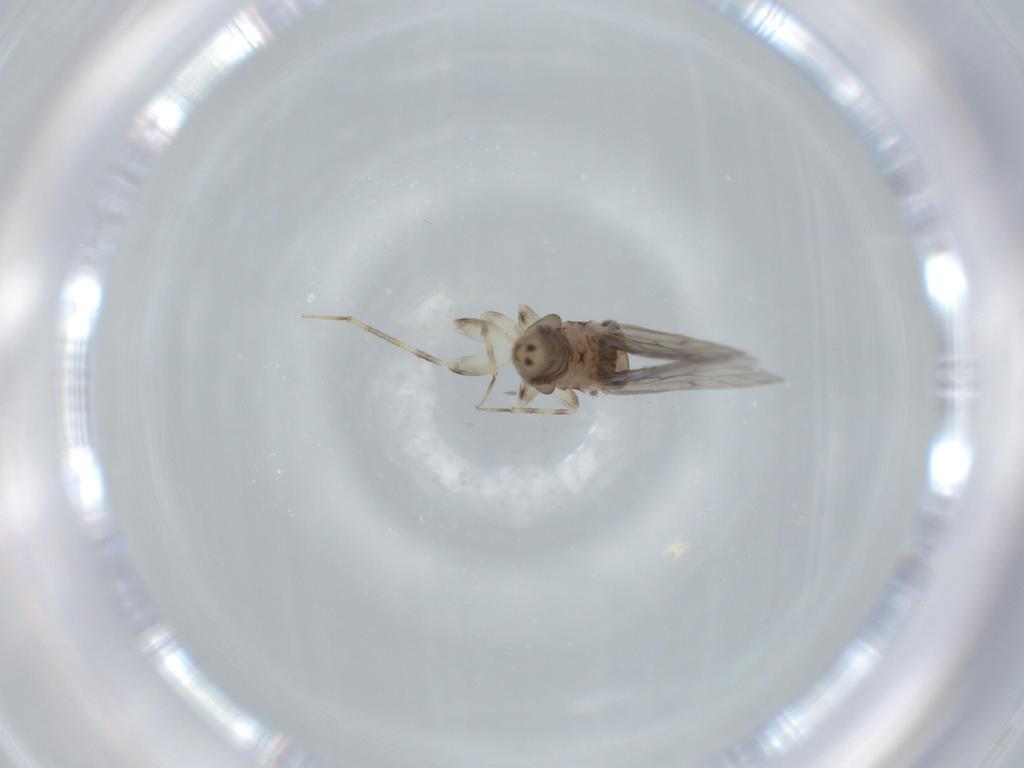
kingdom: Animalia
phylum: Arthropoda
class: Insecta
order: Psocodea
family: Lepidopsocidae
